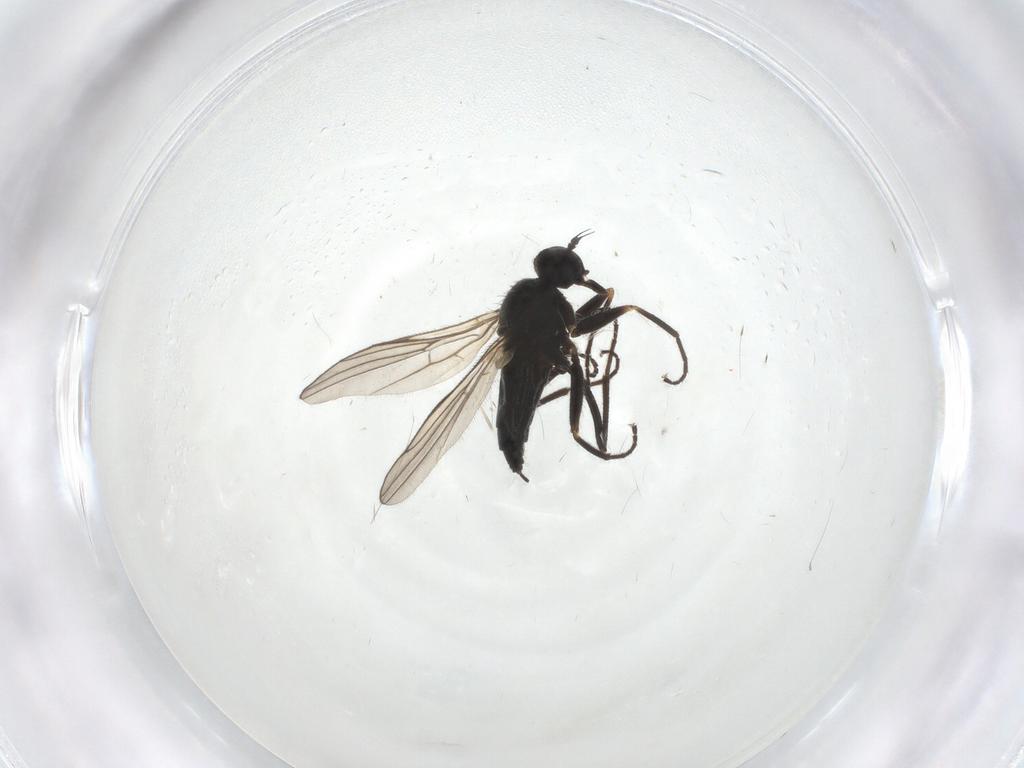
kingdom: Animalia
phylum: Arthropoda
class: Insecta
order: Diptera
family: Hybotidae
